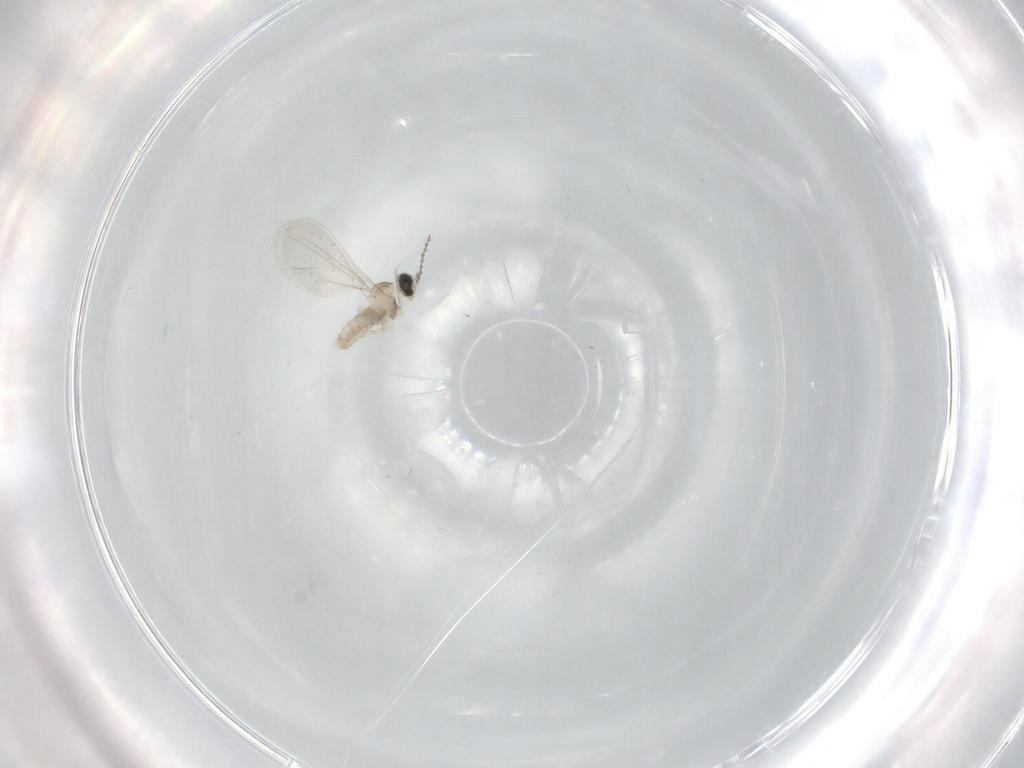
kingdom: Animalia
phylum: Arthropoda
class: Insecta
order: Diptera
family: Cecidomyiidae
